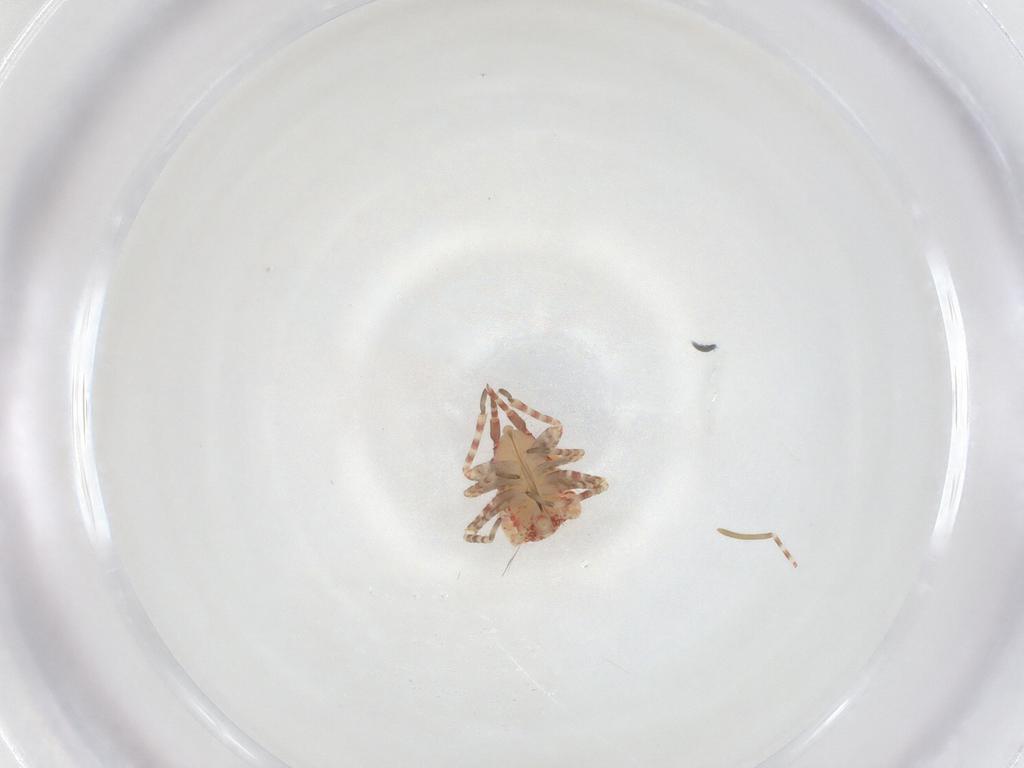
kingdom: Animalia
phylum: Arthropoda
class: Insecta
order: Hemiptera
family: Miridae
